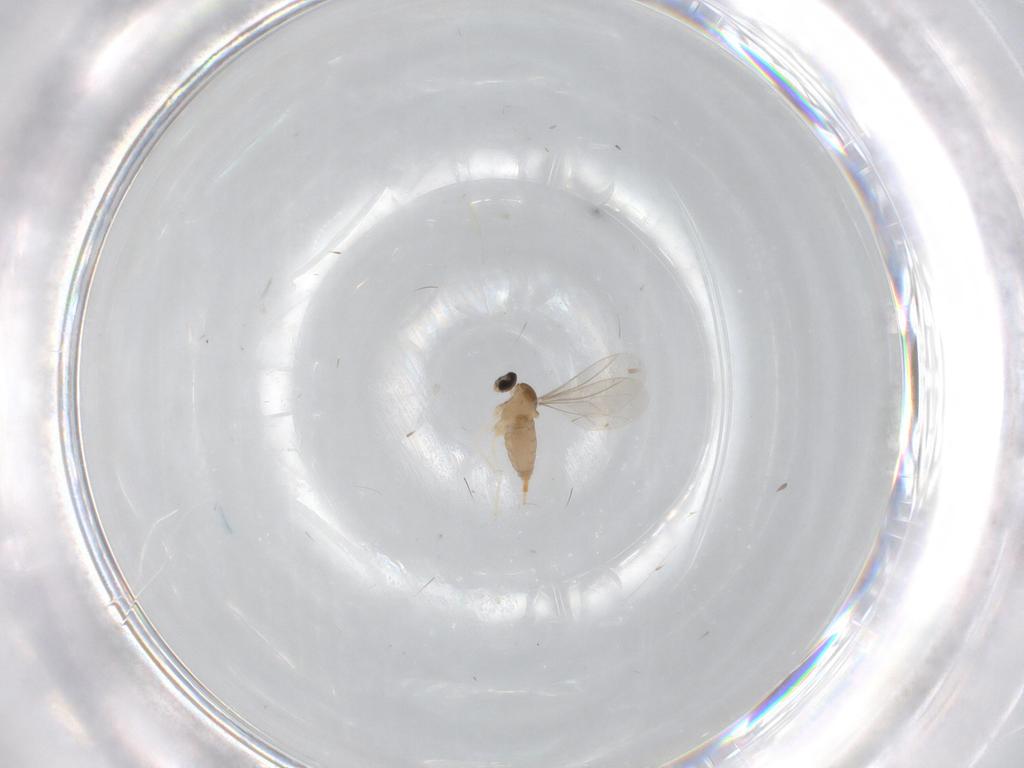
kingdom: Animalia
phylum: Arthropoda
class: Insecta
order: Diptera
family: Cecidomyiidae
